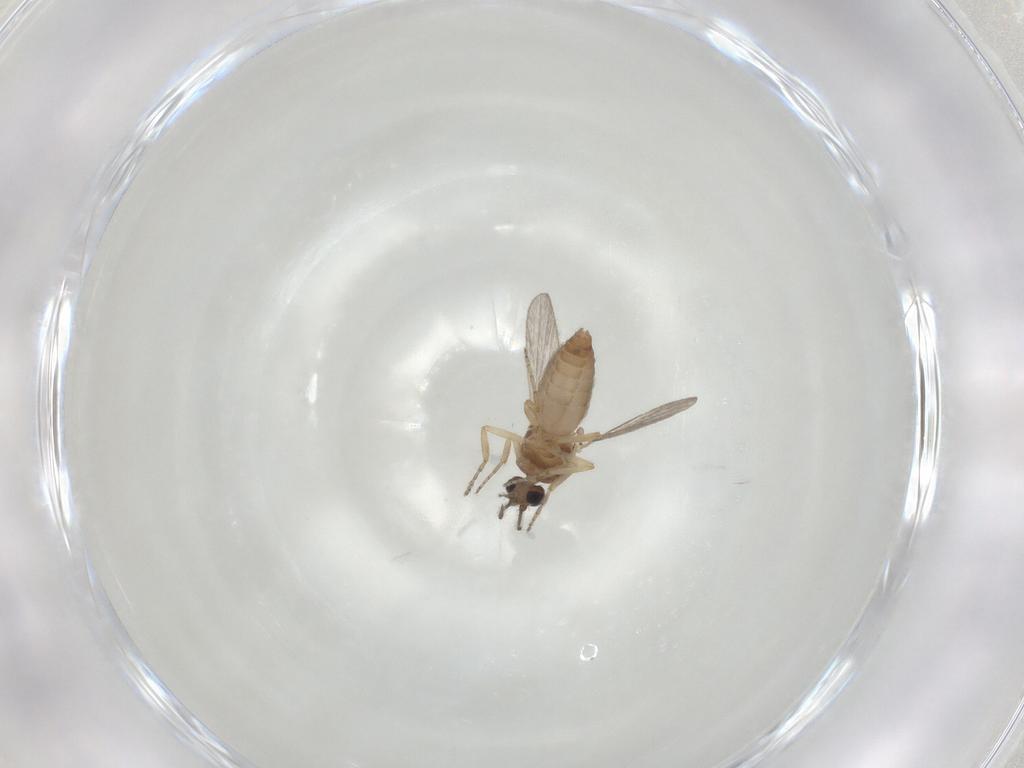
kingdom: Animalia
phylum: Arthropoda
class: Insecta
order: Diptera
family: Ceratopogonidae
